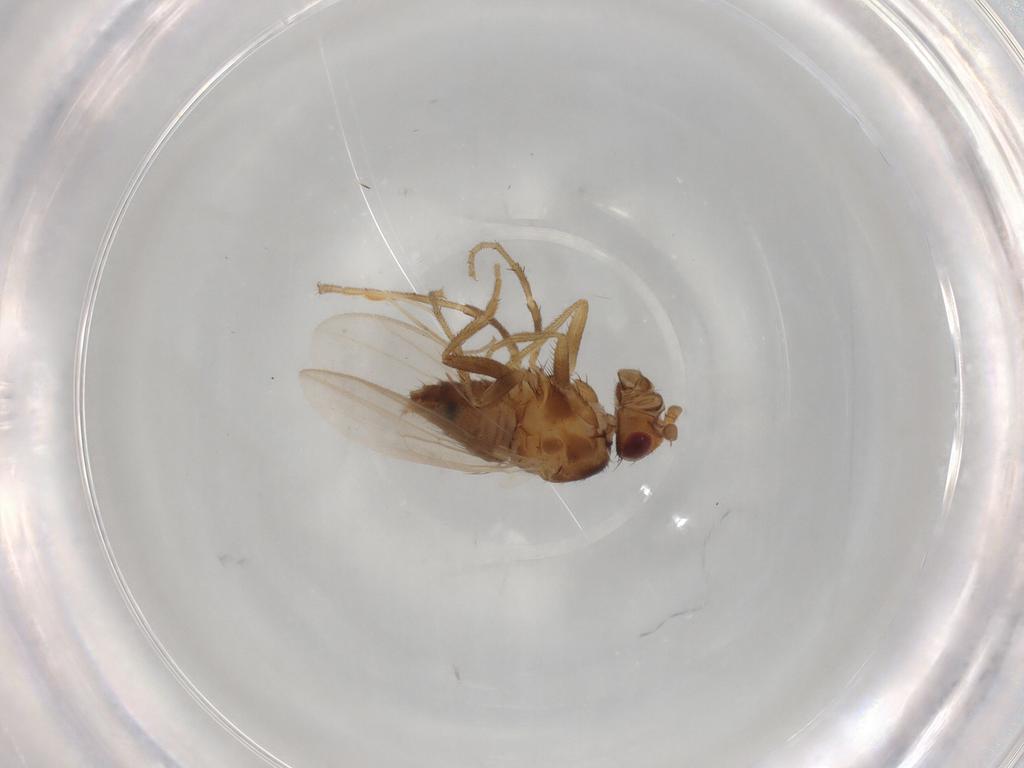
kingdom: Animalia
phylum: Arthropoda
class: Insecta
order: Diptera
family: Sphaeroceridae
